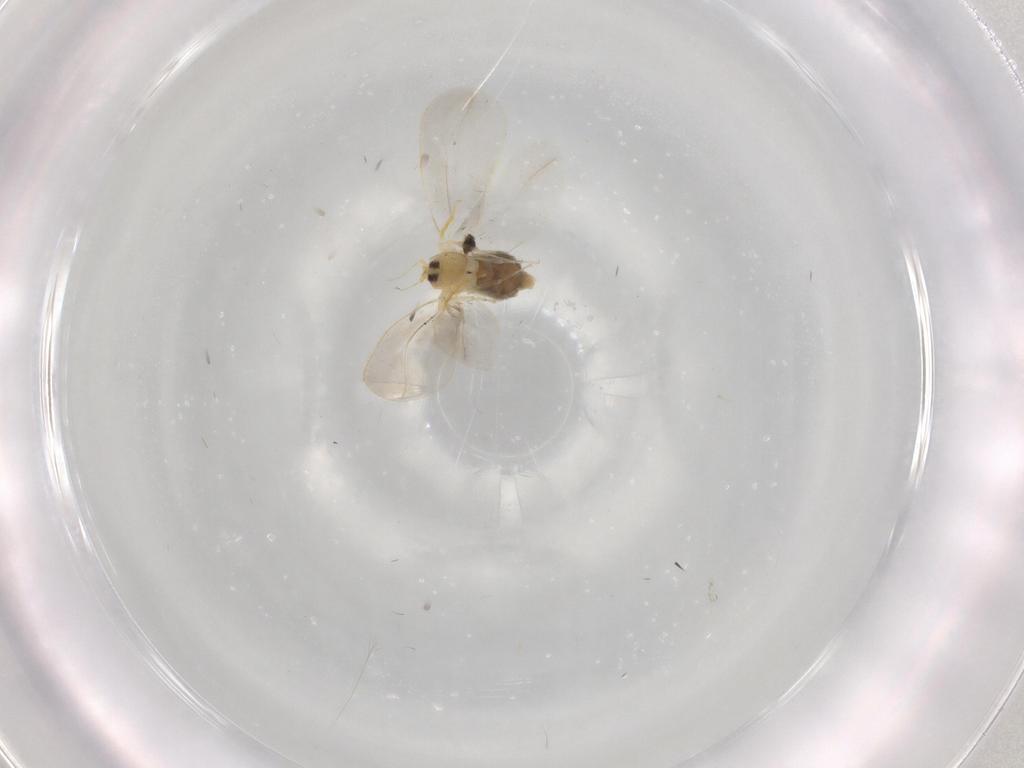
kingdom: Animalia
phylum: Arthropoda
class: Insecta
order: Hemiptera
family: Aleyrodidae
